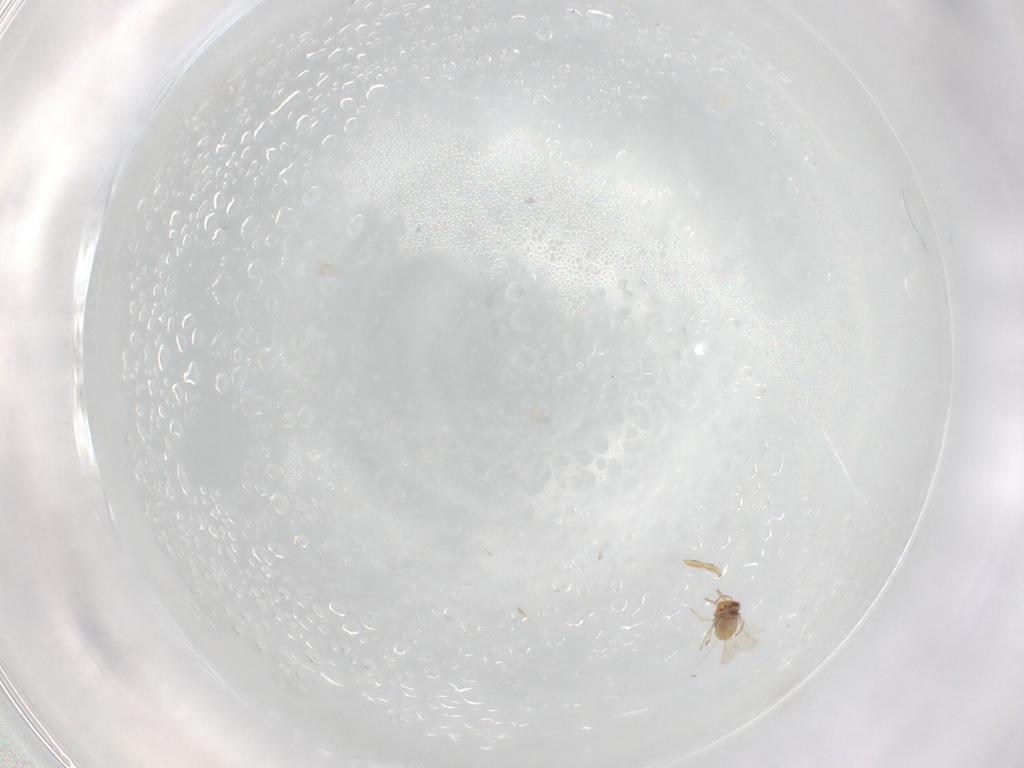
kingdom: Animalia
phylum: Arthropoda
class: Insecta
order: Hymenoptera
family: Aphelinidae
